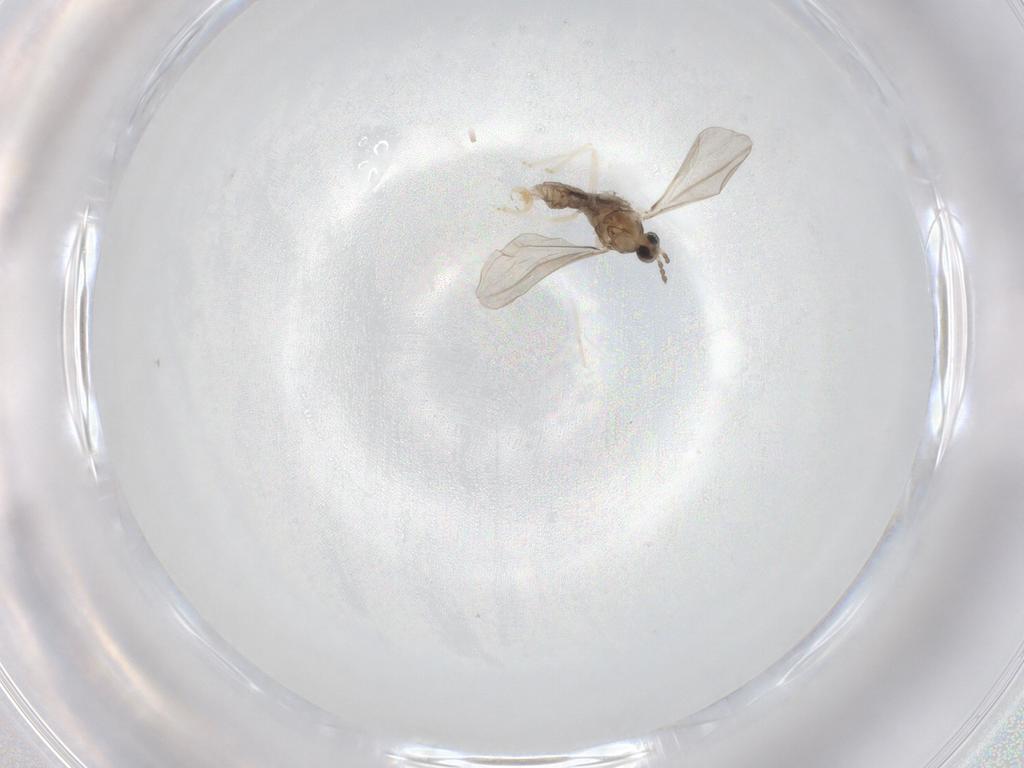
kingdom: Animalia
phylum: Arthropoda
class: Insecta
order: Diptera
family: Cecidomyiidae
